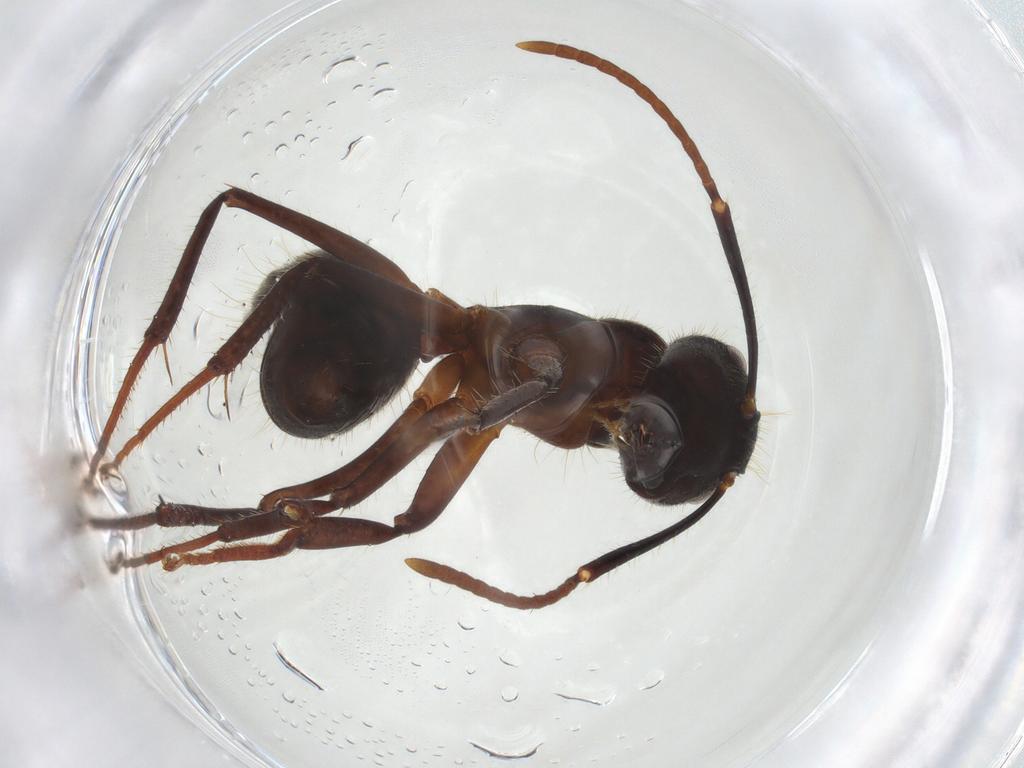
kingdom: Animalia
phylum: Arthropoda
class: Insecta
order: Hymenoptera
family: Formicidae
